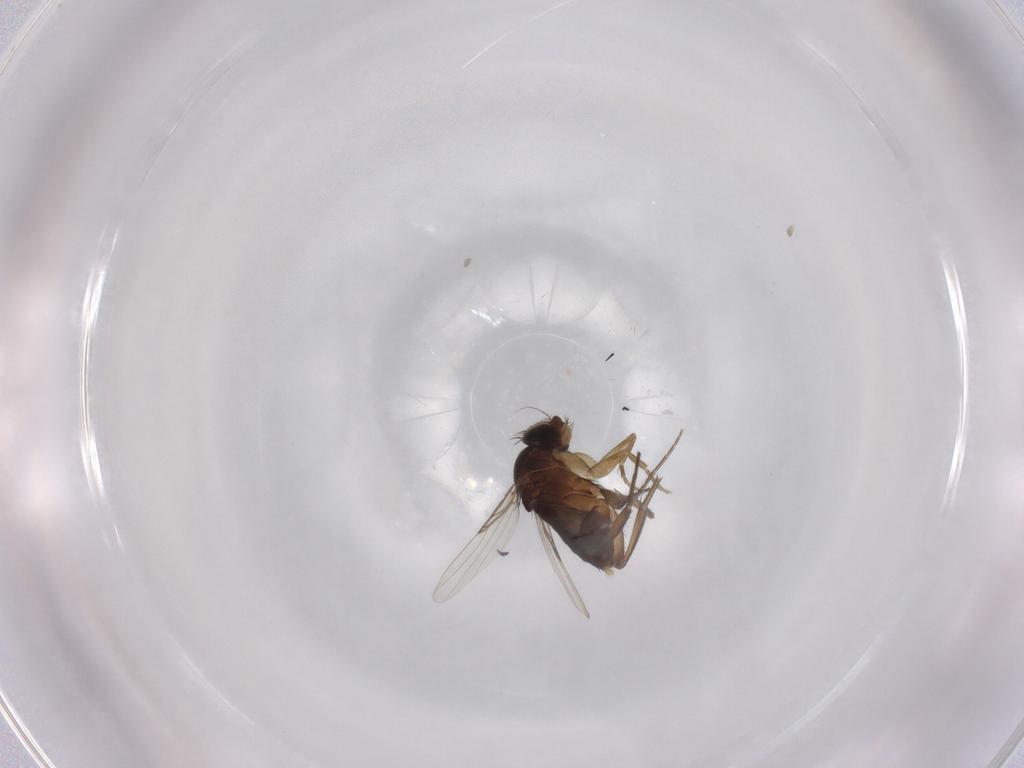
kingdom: Animalia
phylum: Arthropoda
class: Insecta
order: Diptera
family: Phoridae
